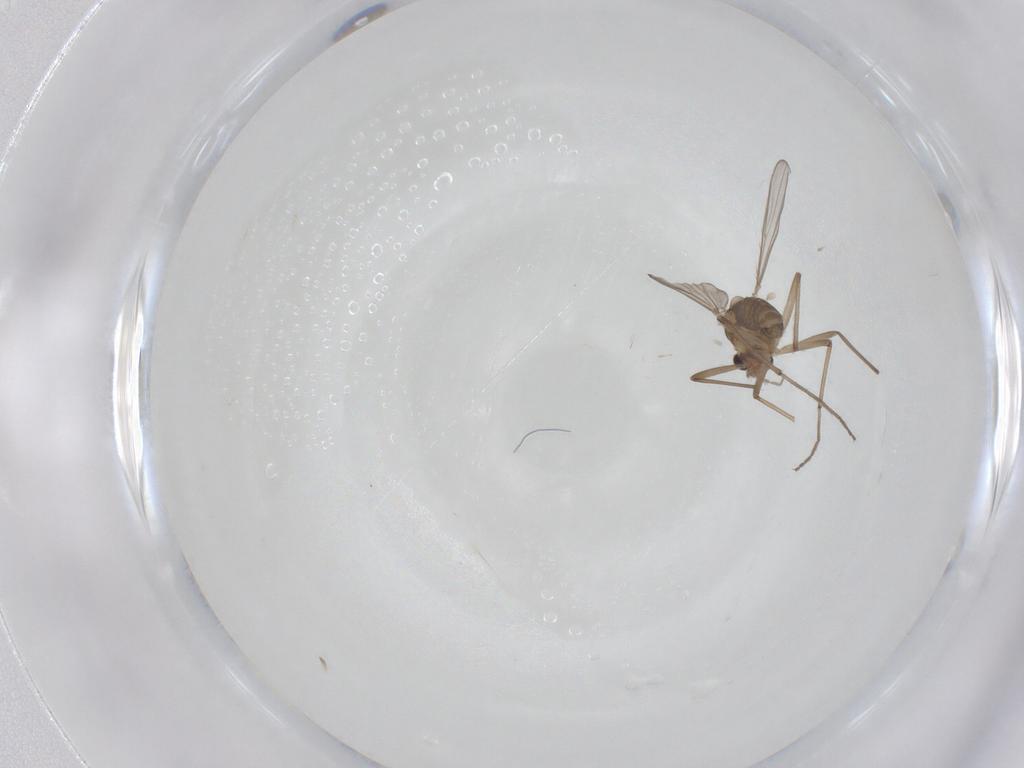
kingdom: Animalia
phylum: Arthropoda
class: Insecta
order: Diptera
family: Chironomidae
